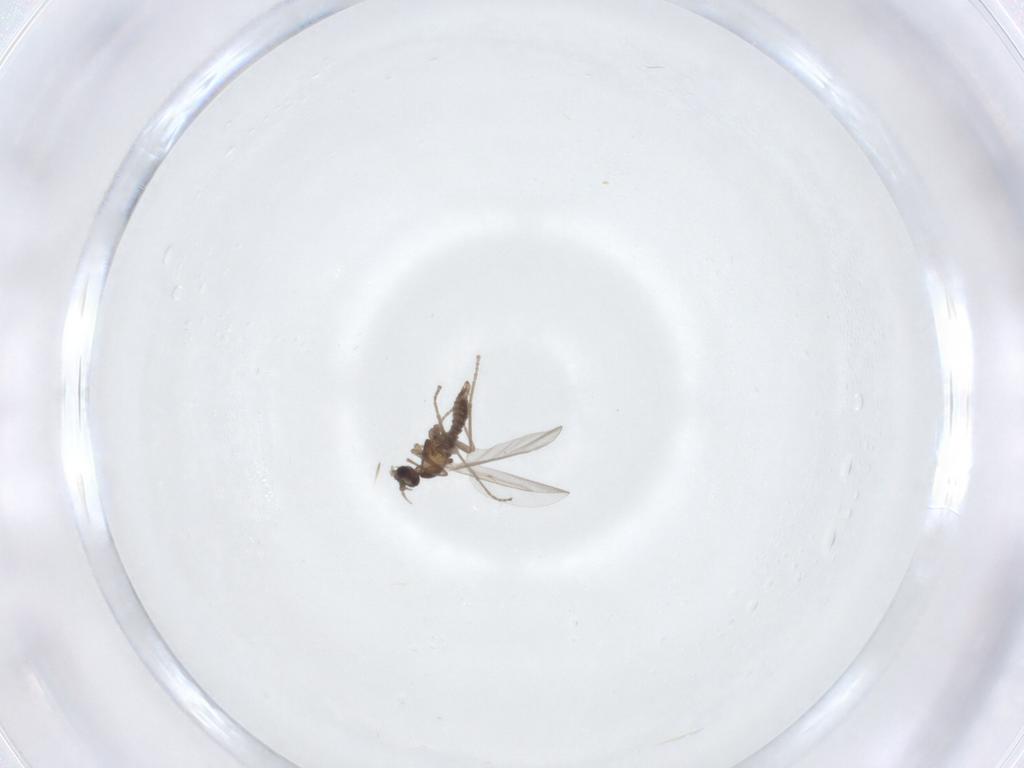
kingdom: Animalia
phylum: Arthropoda
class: Insecta
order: Diptera
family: Cecidomyiidae
